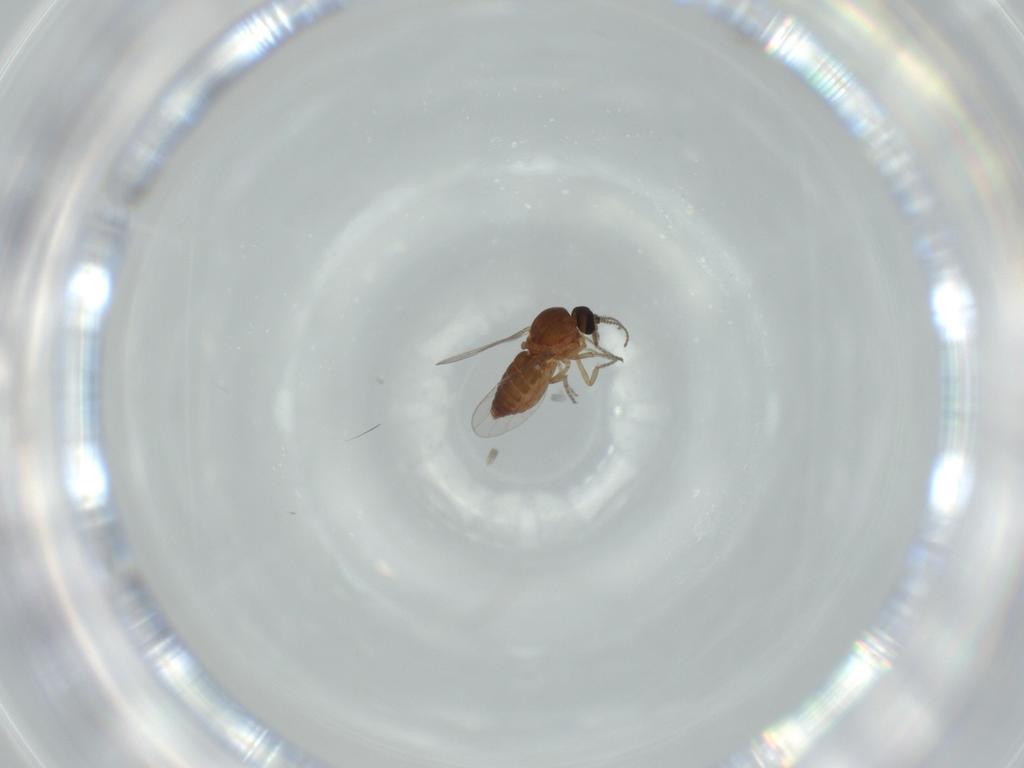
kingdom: Animalia
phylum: Arthropoda
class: Insecta
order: Diptera
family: Ceratopogonidae
